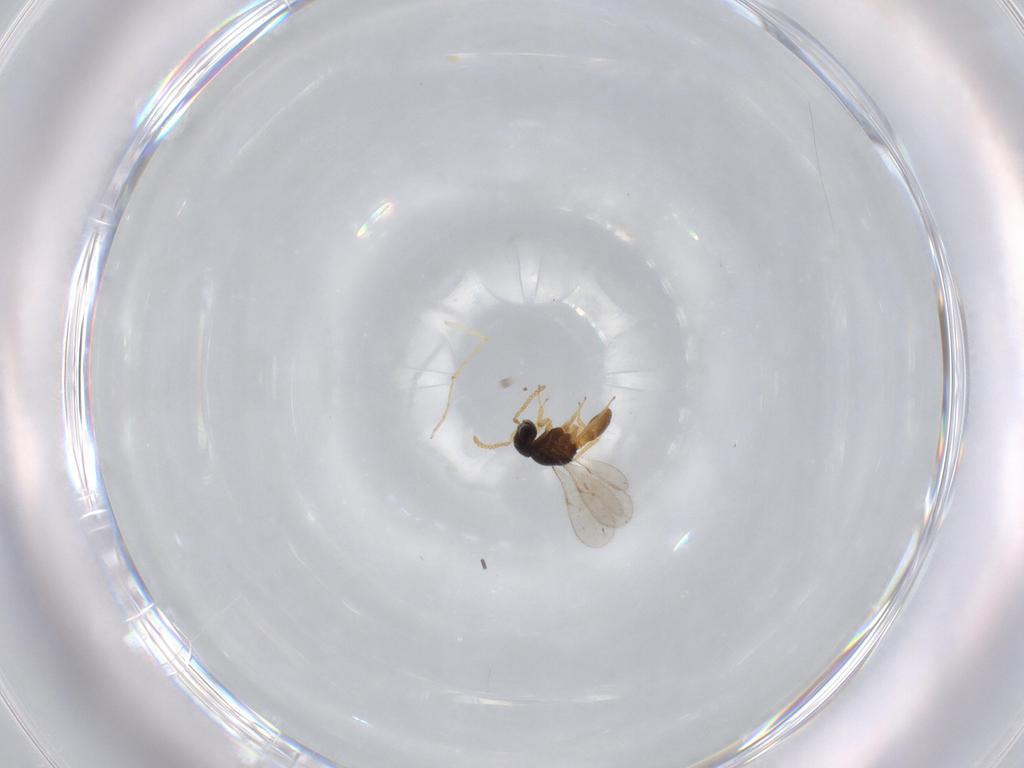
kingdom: Animalia
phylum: Arthropoda
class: Insecta
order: Hymenoptera
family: Scelionidae
